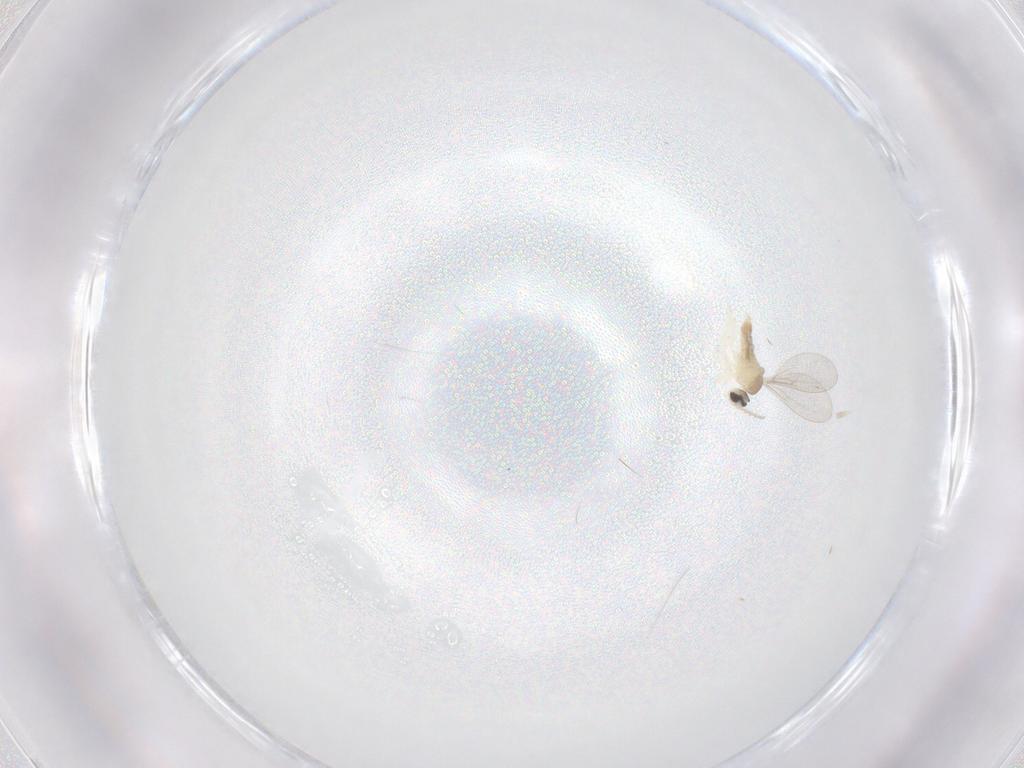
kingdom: Animalia
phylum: Arthropoda
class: Insecta
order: Diptera
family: Cecidomyiidae
